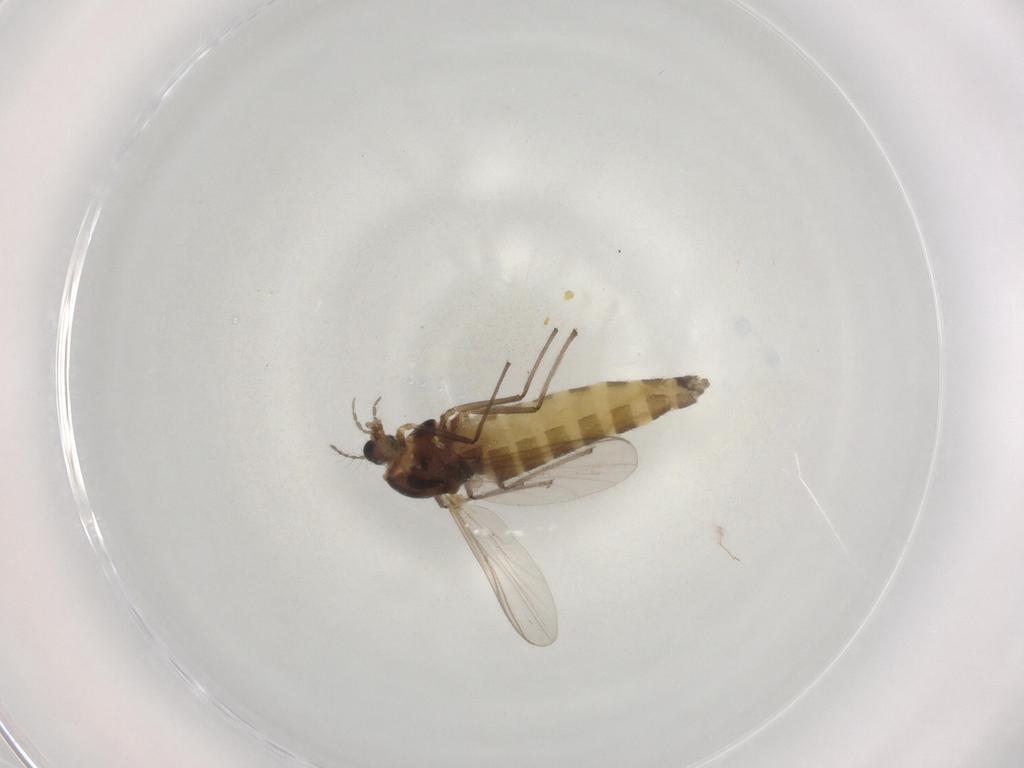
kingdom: Animalia
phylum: Arthropoda
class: Insecta
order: Diptera
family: Chironomidae
